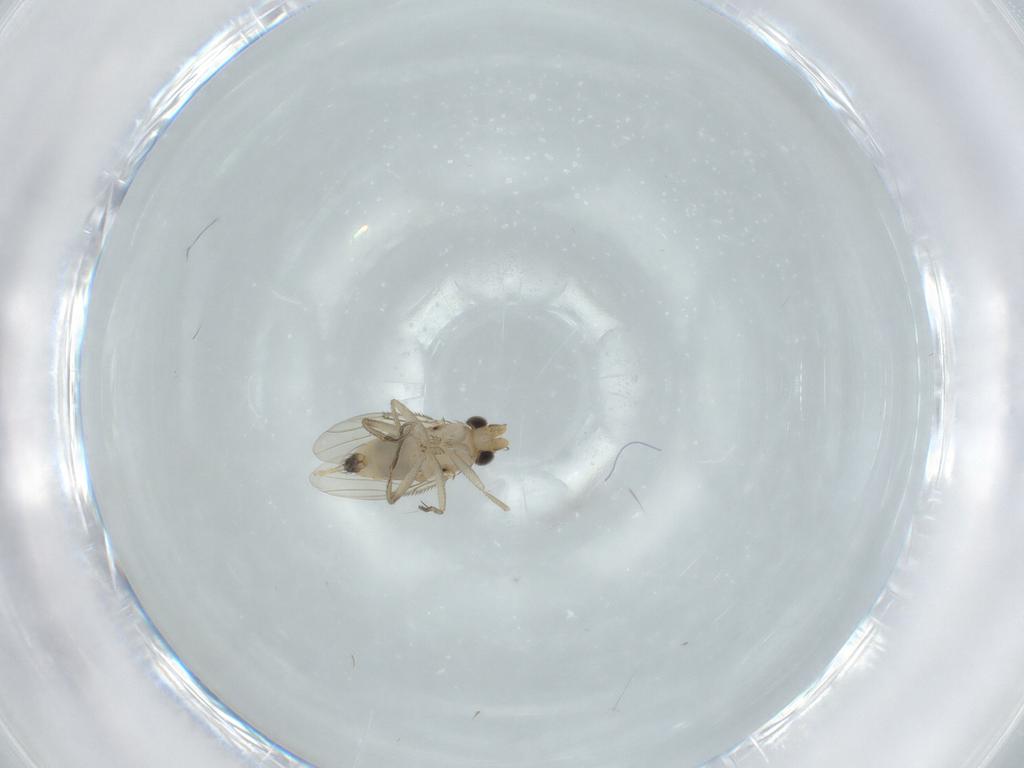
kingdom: Animalia
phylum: Arthropoda
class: Insecta
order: Diptera
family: Phoridae
